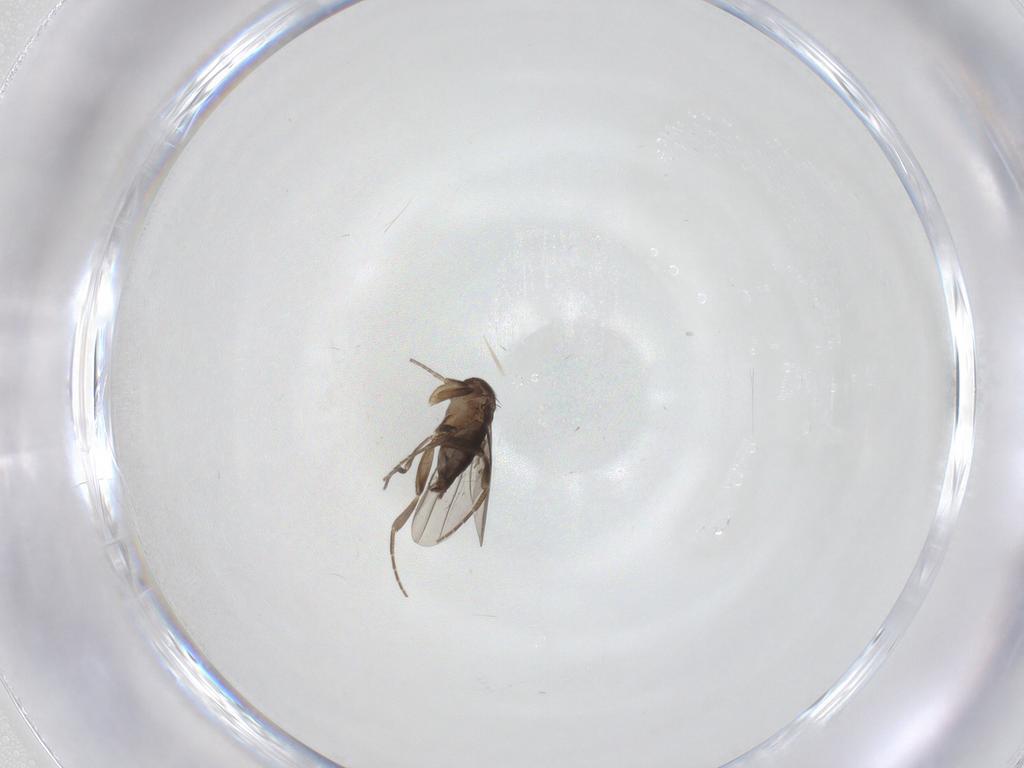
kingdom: Animalia
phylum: Arthropoda
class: Insecta
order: Diptera
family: Phoridae
